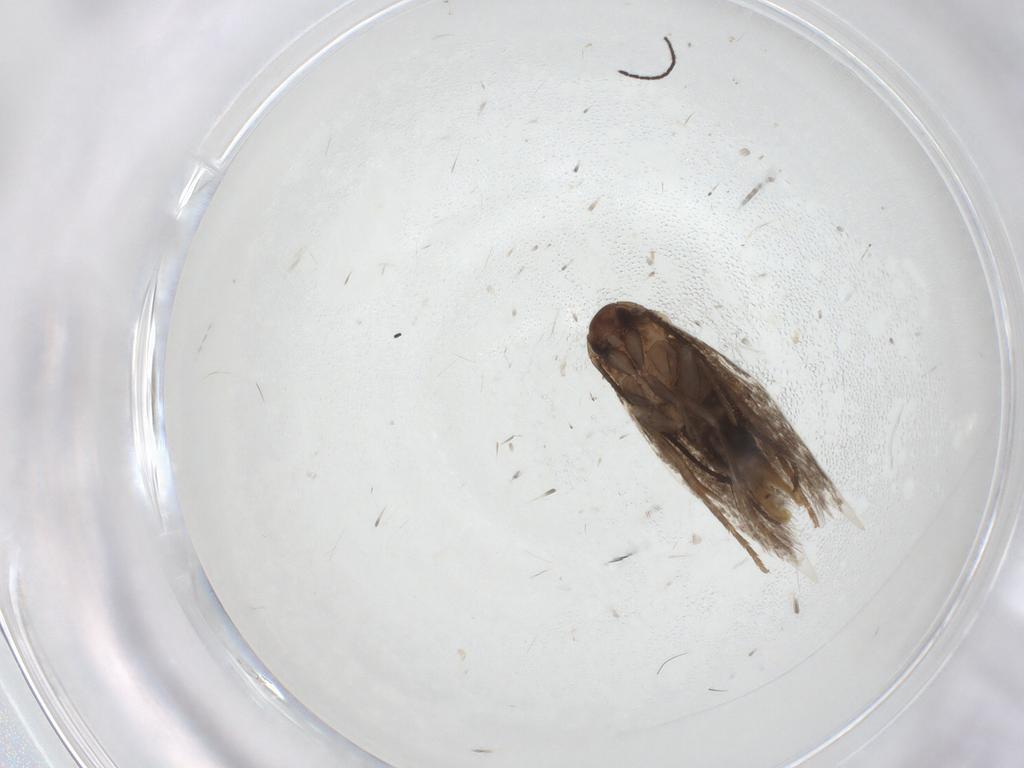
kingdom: Animalia
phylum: Arthropoda
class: Insecta
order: Lepidoptera
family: Elachistidae
